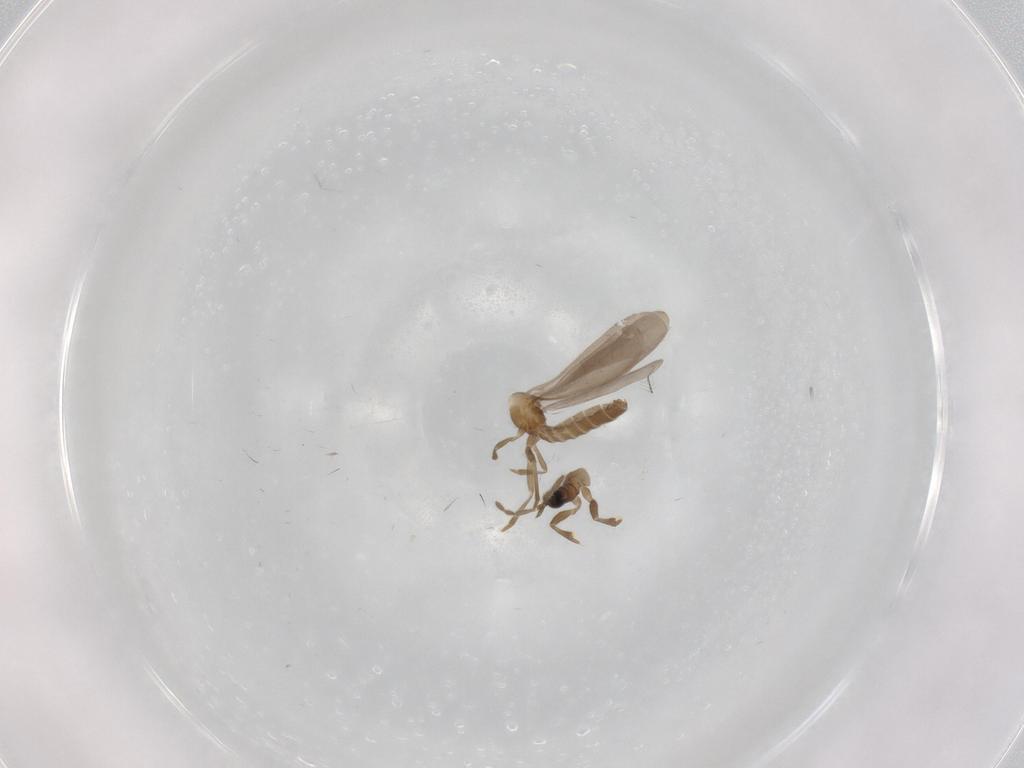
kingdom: Animalia
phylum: Arthropoda
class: Insecta
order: Hemiptera
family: Enicocephalidae
